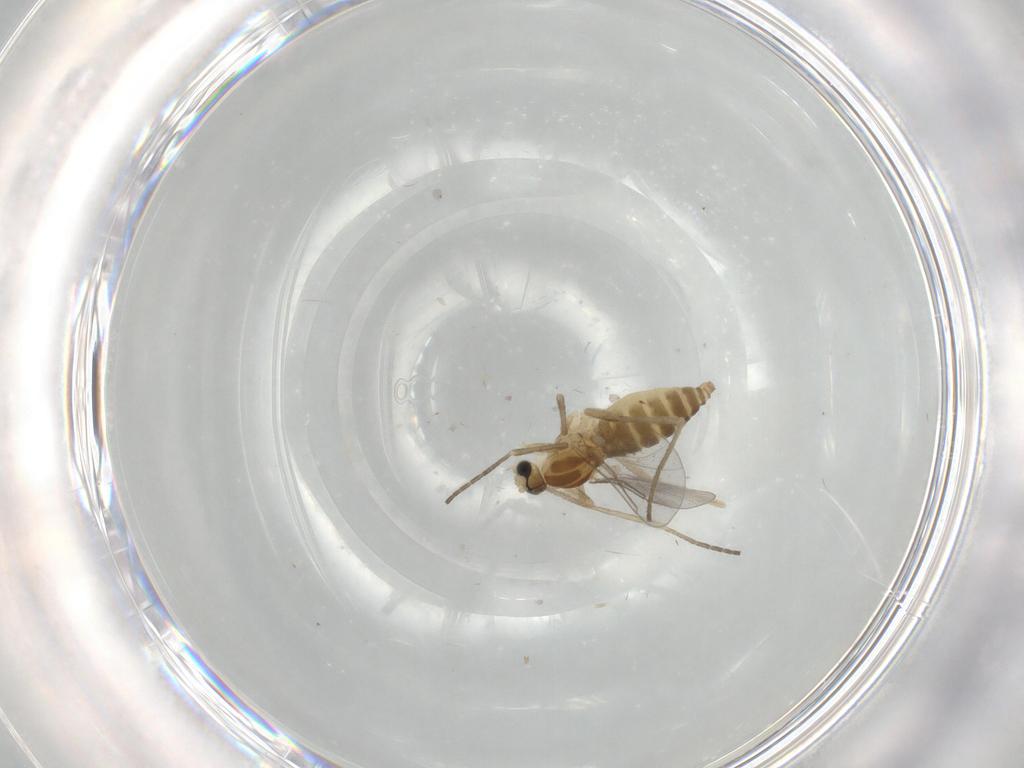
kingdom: Animalia
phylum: Arthropoda
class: Insecta
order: Diptera
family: Cecidomyiidae
